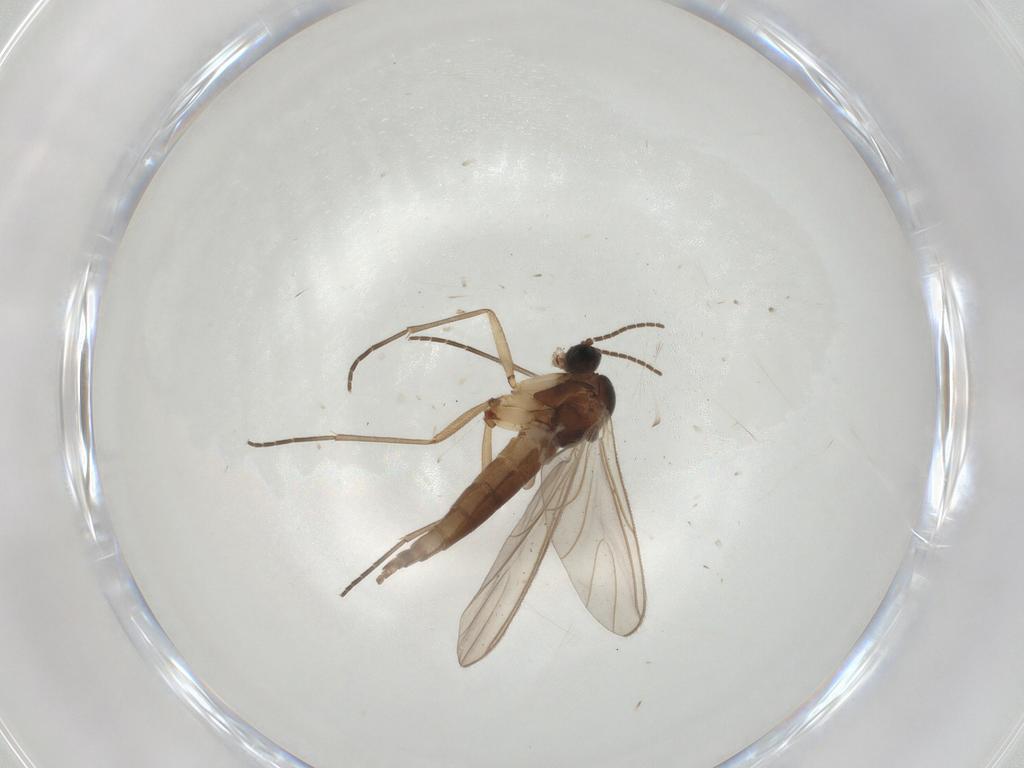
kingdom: Animalia
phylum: Arthropoda
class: Insecta
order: Diptera
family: Sciaridae
